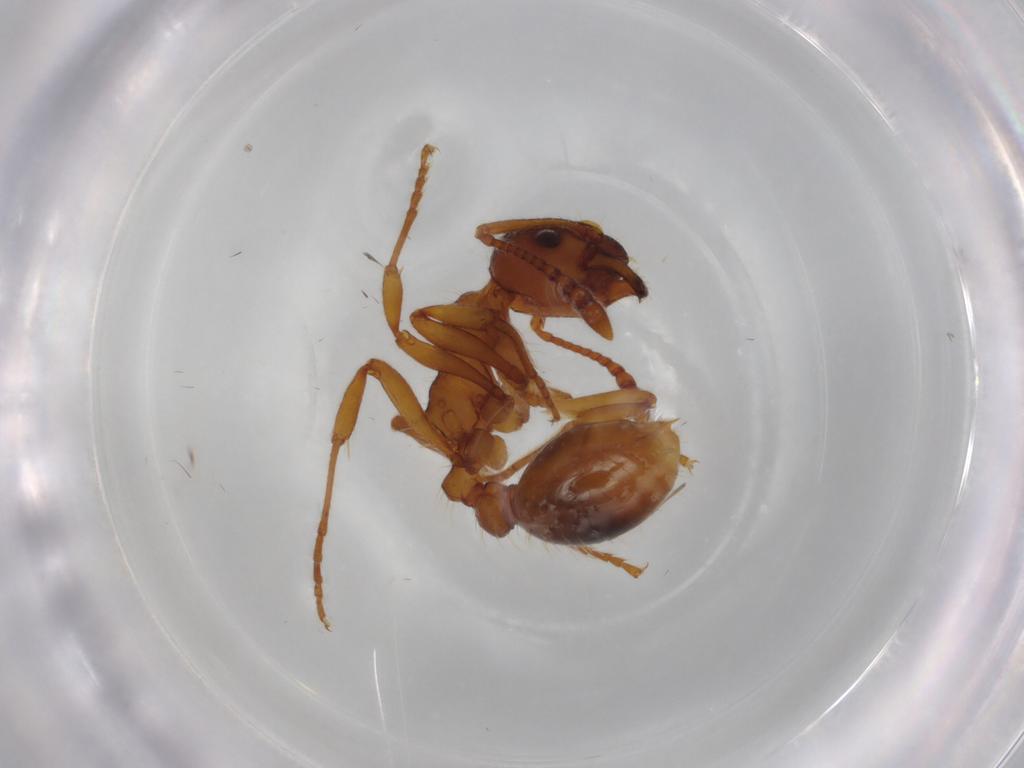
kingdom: Animalia
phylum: Arthropoda
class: Insecta
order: Hymenoptera
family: Formicidae
